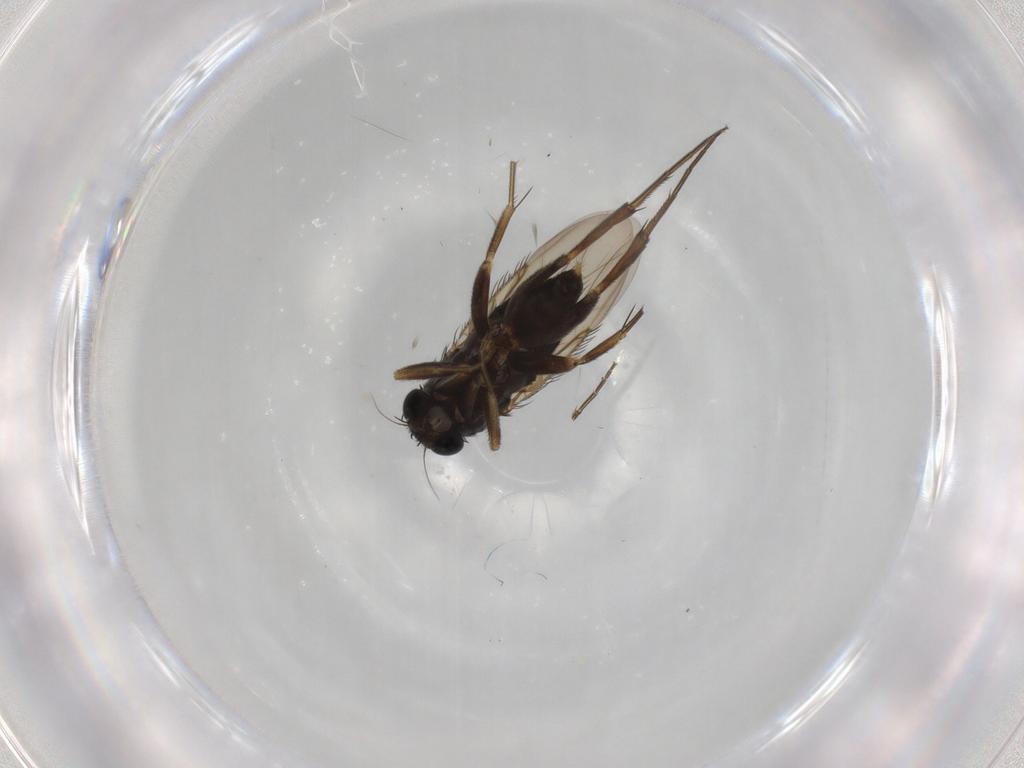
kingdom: Animalia
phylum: Arthropoda
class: Insecta
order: Diptera
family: Phoridae
